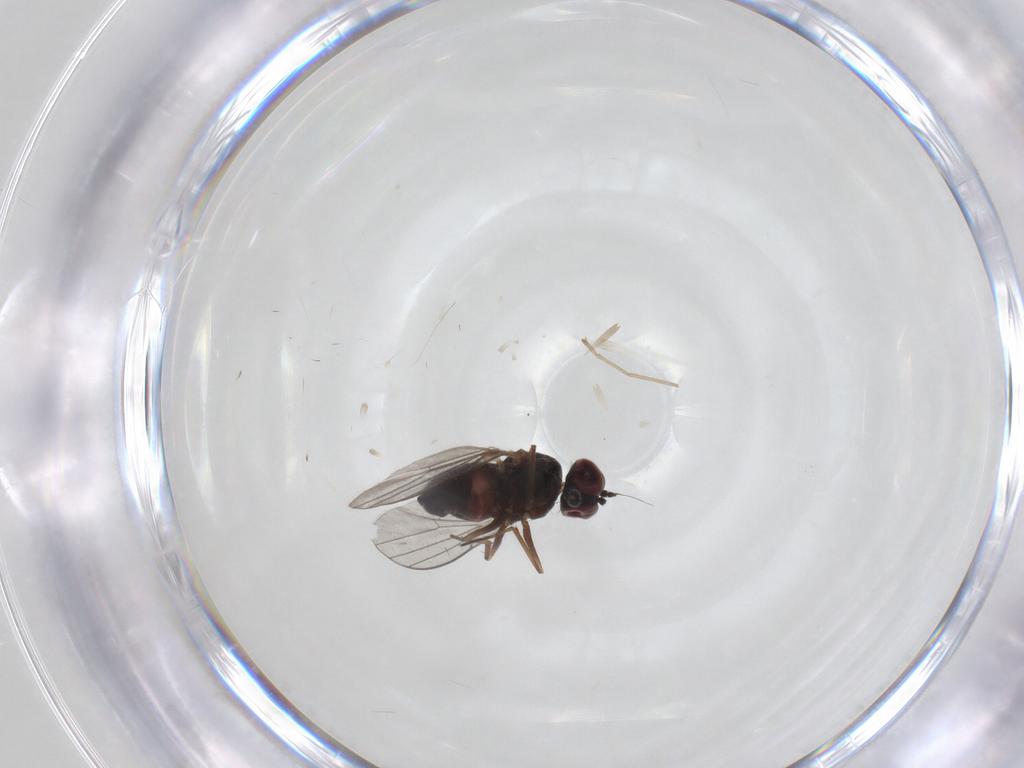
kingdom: Animalia
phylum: Arthropoda
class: Insecta
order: Diptera
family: Dolichopodidae
